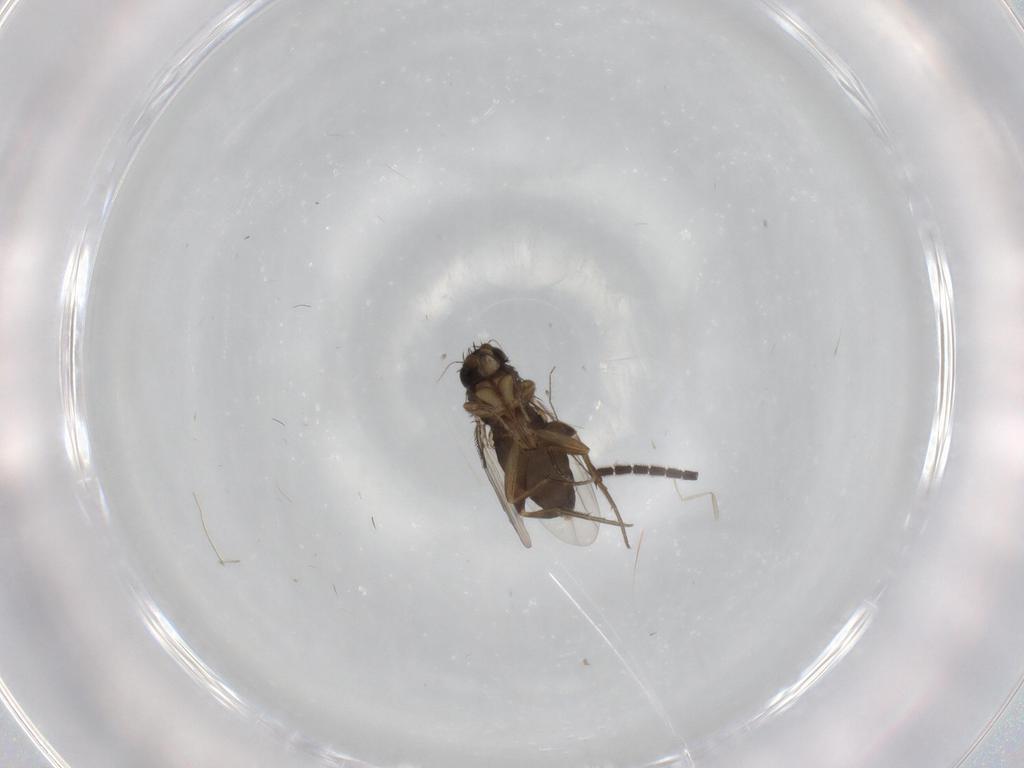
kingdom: Animalia
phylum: Arthropoda
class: Insecta
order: Diptera
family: Phoridae
